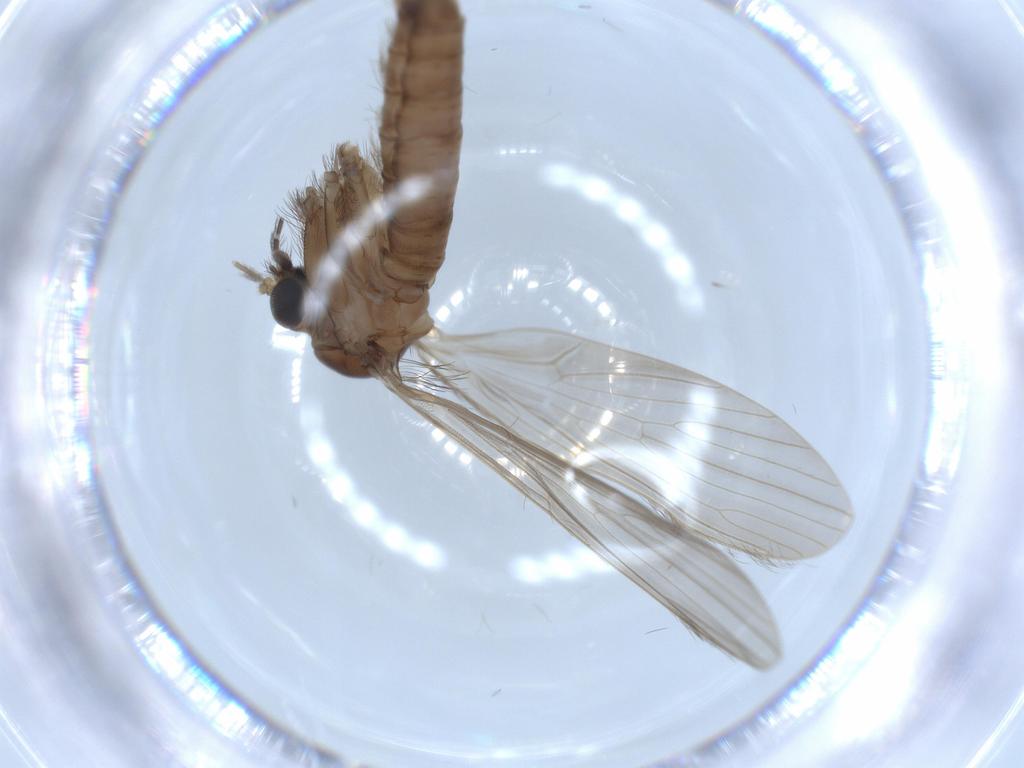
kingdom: Animalia
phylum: Arthropoda
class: Insecta
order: Diptera
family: Psychodidae
